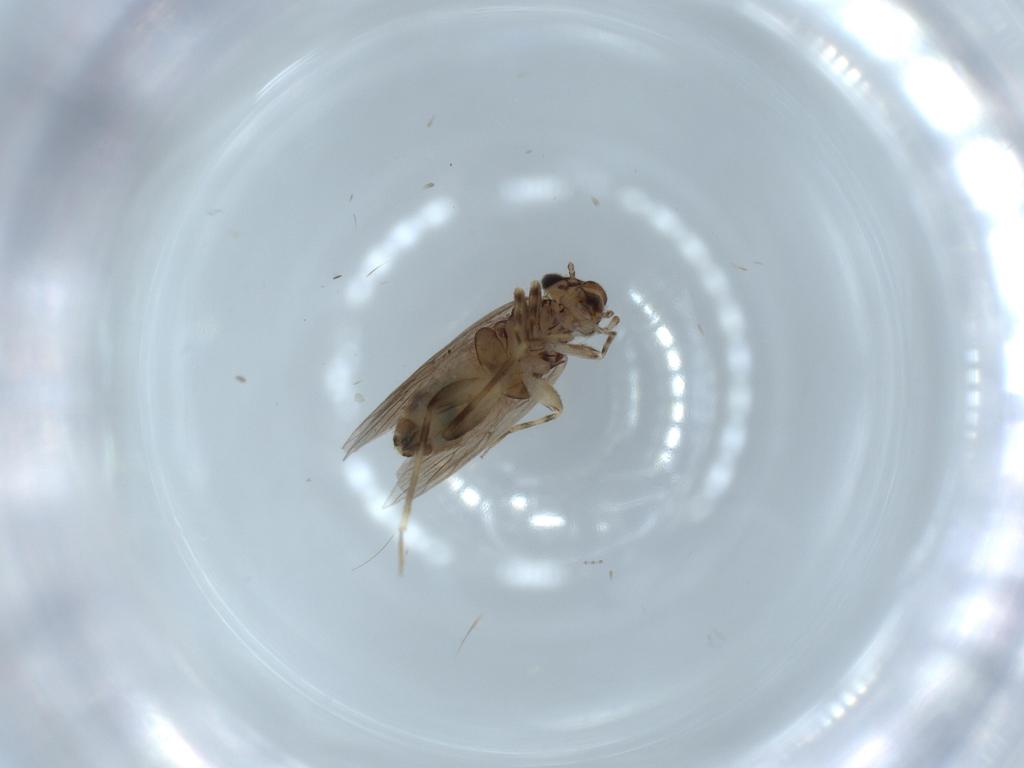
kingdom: Animalia
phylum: Arthropoda
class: Insecta
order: Psocodea
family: Lepidopsocidae
